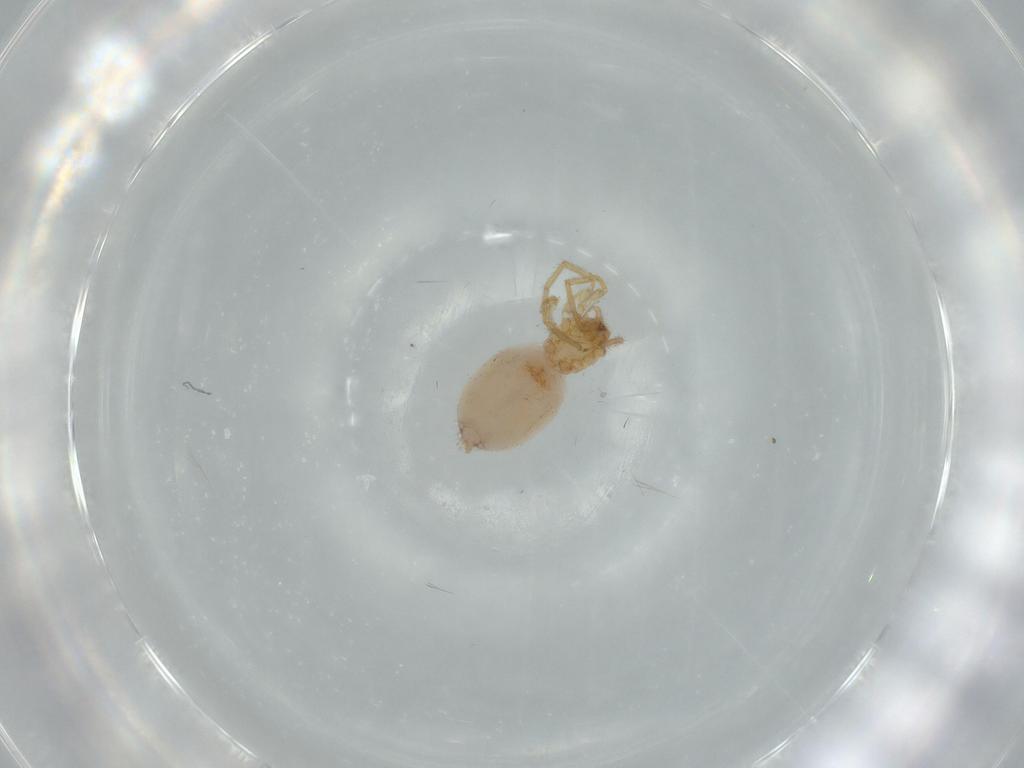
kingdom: Animalia
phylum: Arthropoda
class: Arachnida
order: Araneae
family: Oonopidae
